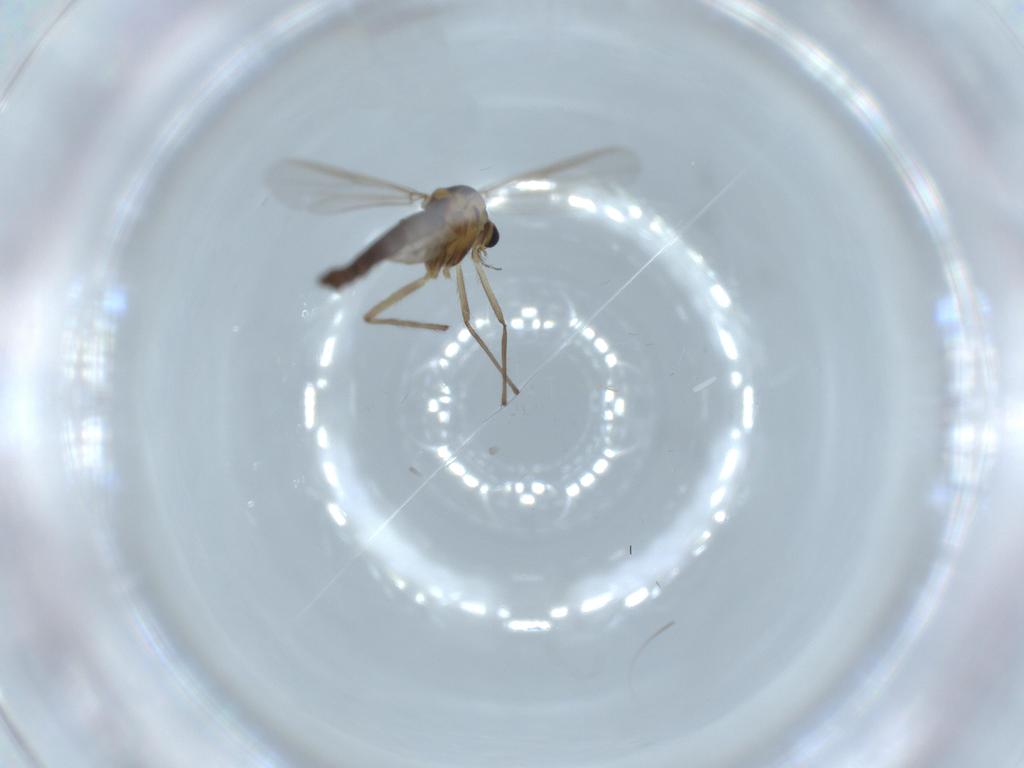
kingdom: Animalia
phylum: Arthropoda
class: Insecta
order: Diptera
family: Chironomidae
